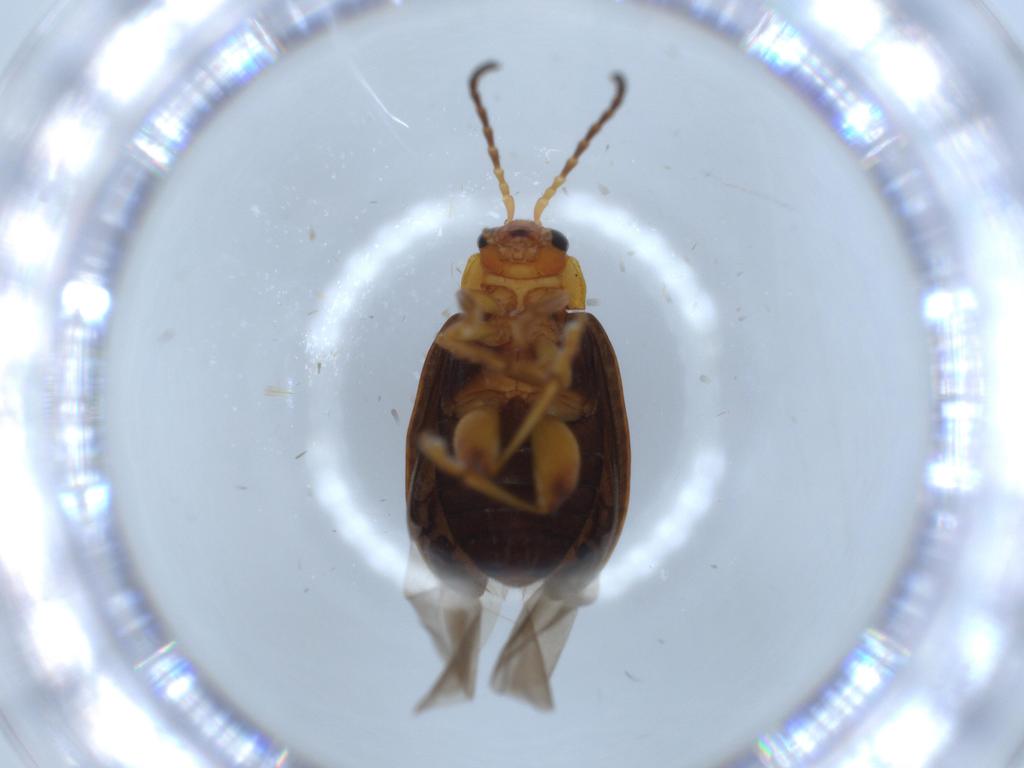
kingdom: Animalia
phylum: Arthropoda
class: Insecta
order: Coleoptera
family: Chrysomelidae
